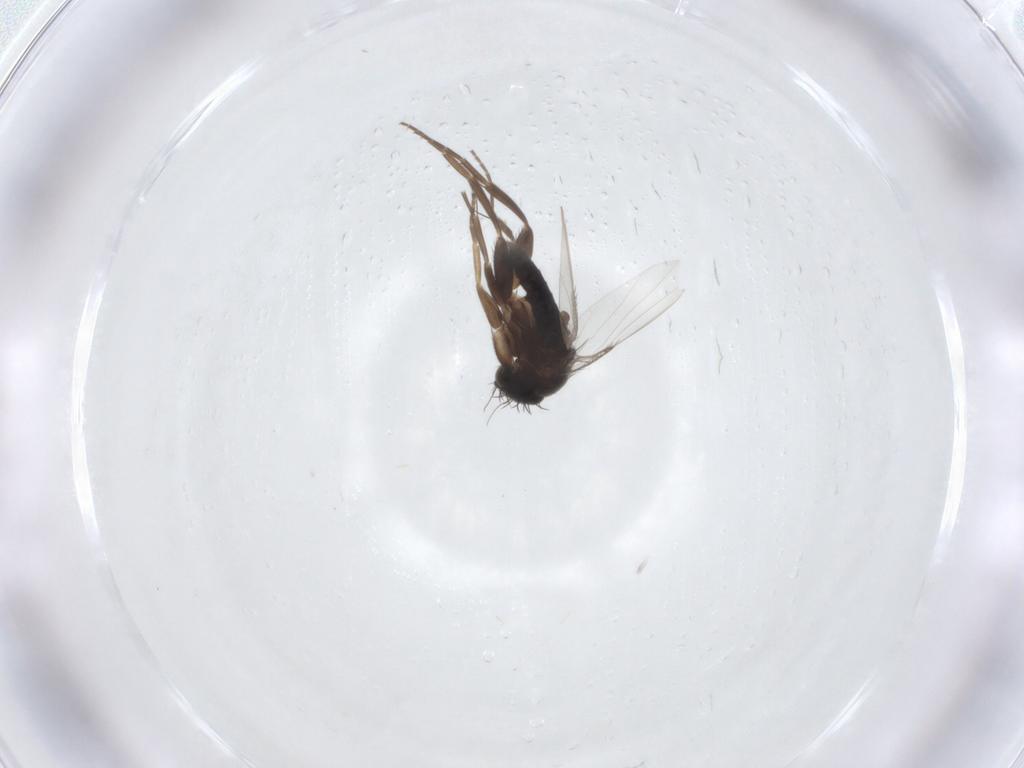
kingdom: Animalia
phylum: Arthropoda
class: Insecta
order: Diptera
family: Phoridae
